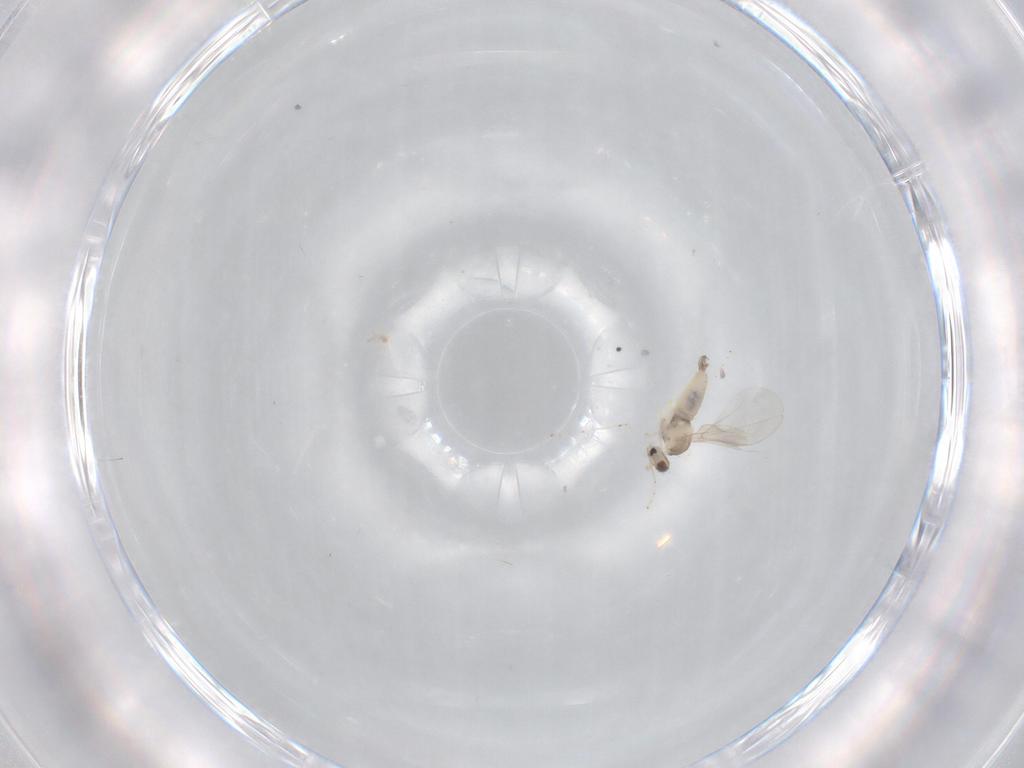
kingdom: Animalia
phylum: Arthropoda
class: Insecta
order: Diptera
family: Cecidomyiidae
